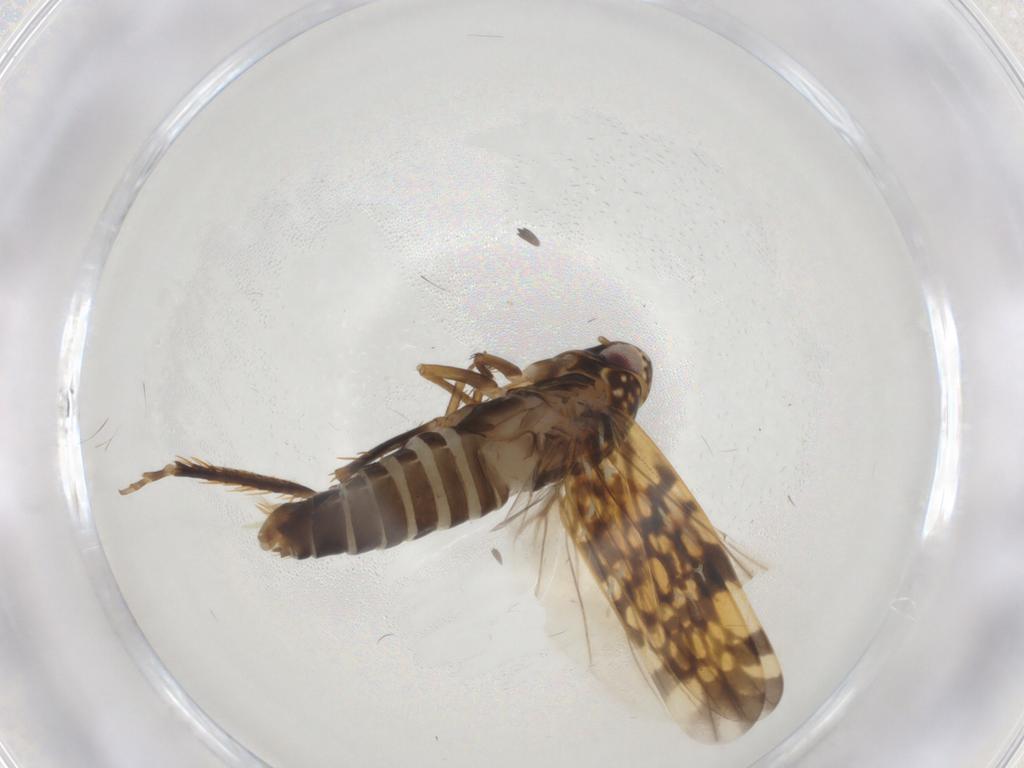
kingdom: Animalia
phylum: Arthropoda
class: Insecta
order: Hemiptera
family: Cicadellidae
